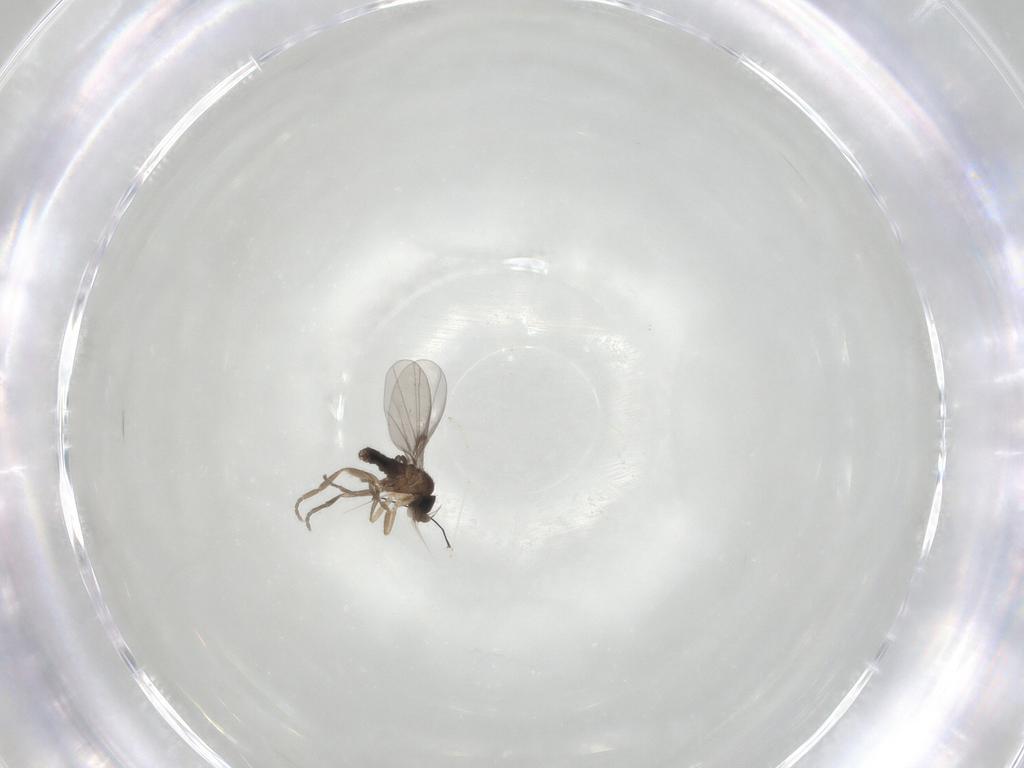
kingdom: Animalia
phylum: Arthropoda
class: Insecta
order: Diptera
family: Phoridae
